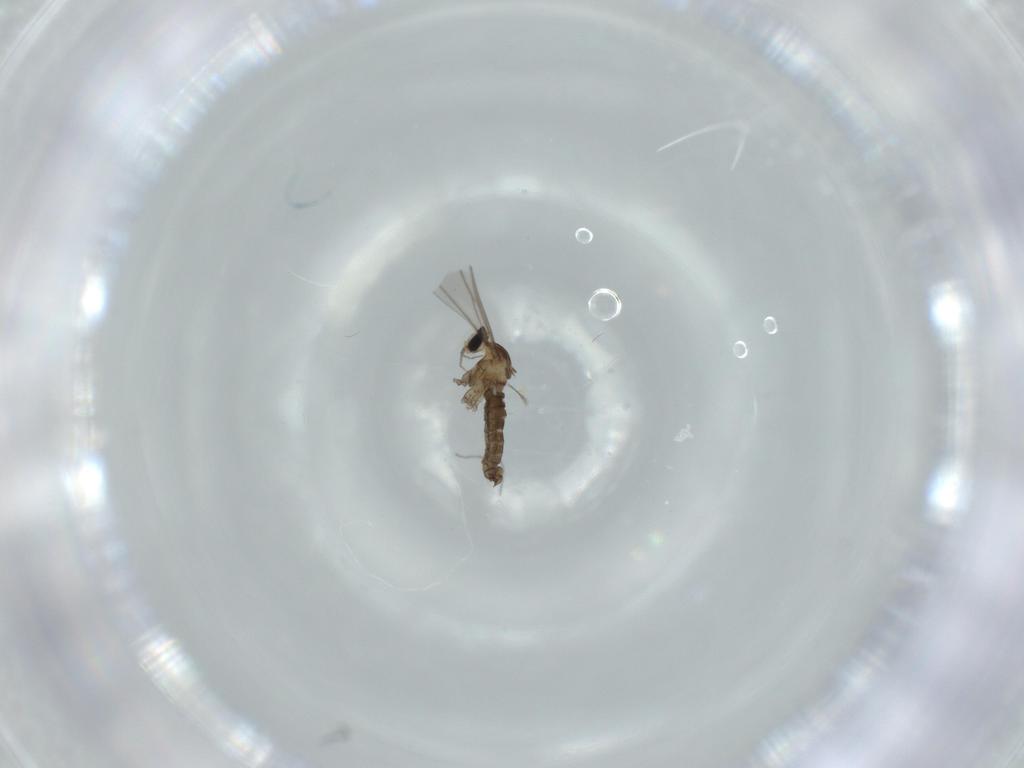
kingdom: Animalia
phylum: Arthropoda
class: Insecta
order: Diptera
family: Cecidomyiidae
